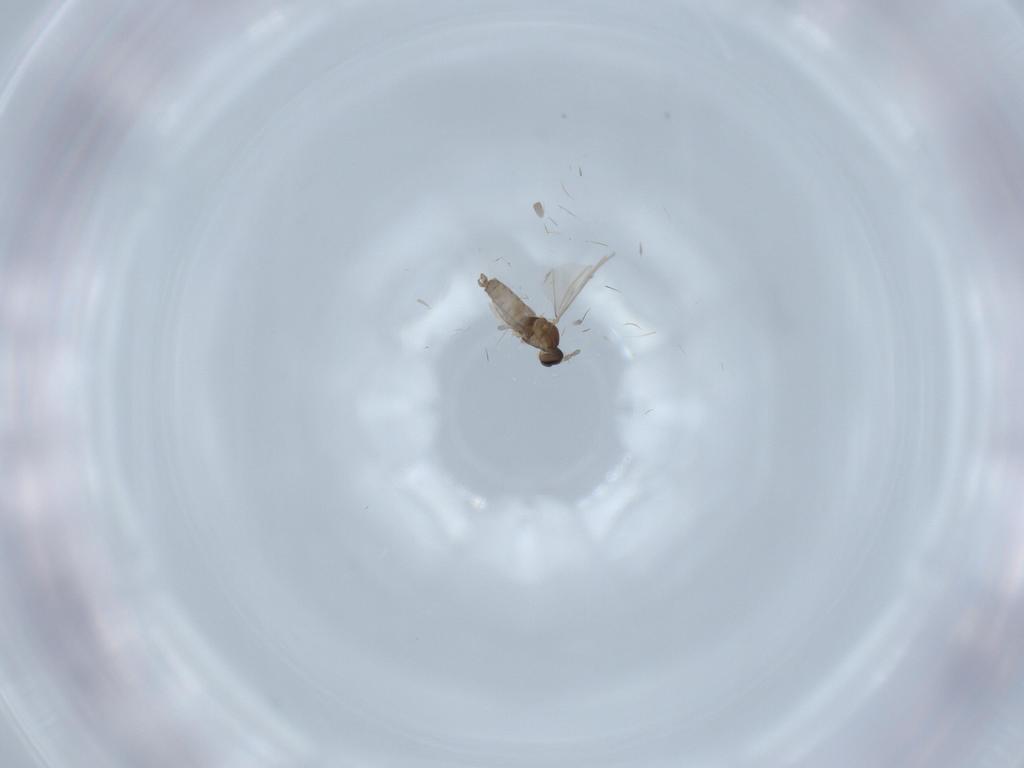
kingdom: Animalia
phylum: Arthropoda
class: Insecta
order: Diptera
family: Cecidomyiidae
